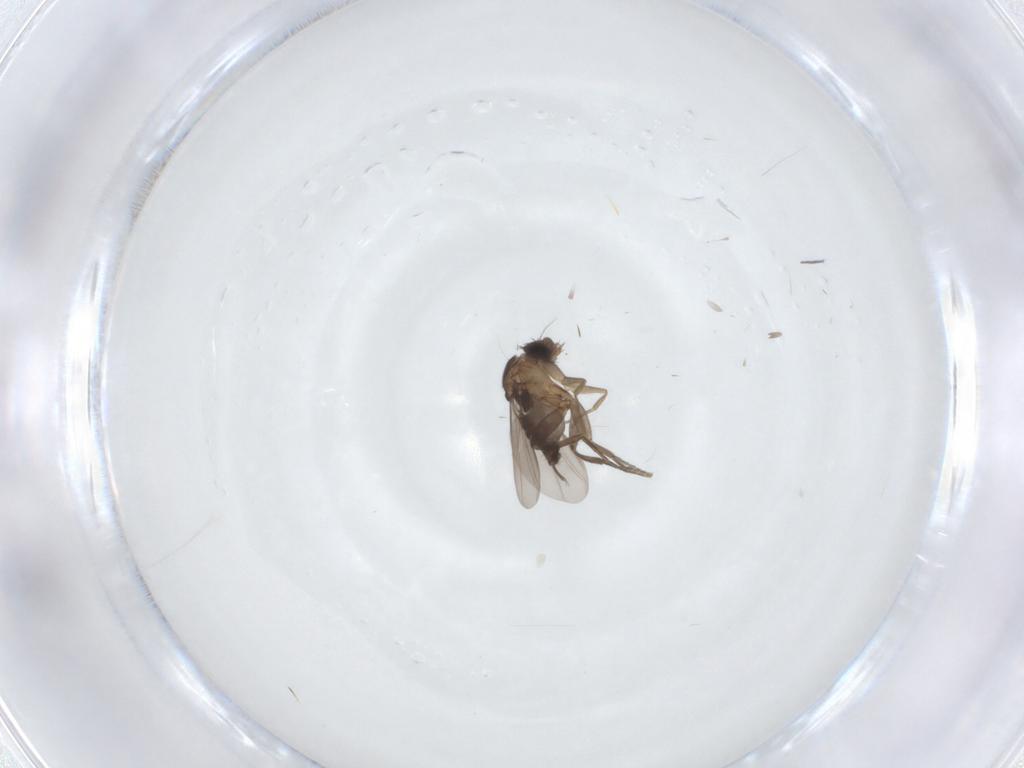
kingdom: Animalia
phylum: Arthropoda
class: Insecta
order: Diptera
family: Phoridae
